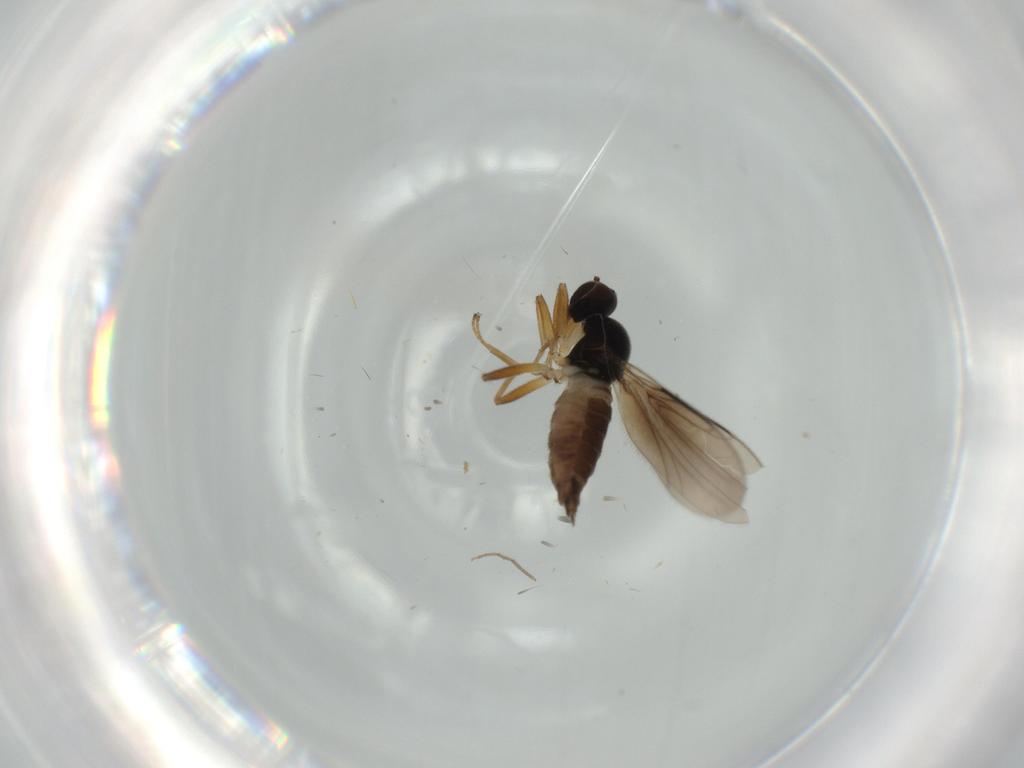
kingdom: Animalia
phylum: Arthropoda
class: Insecta
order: Diptera
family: Hybotidae
